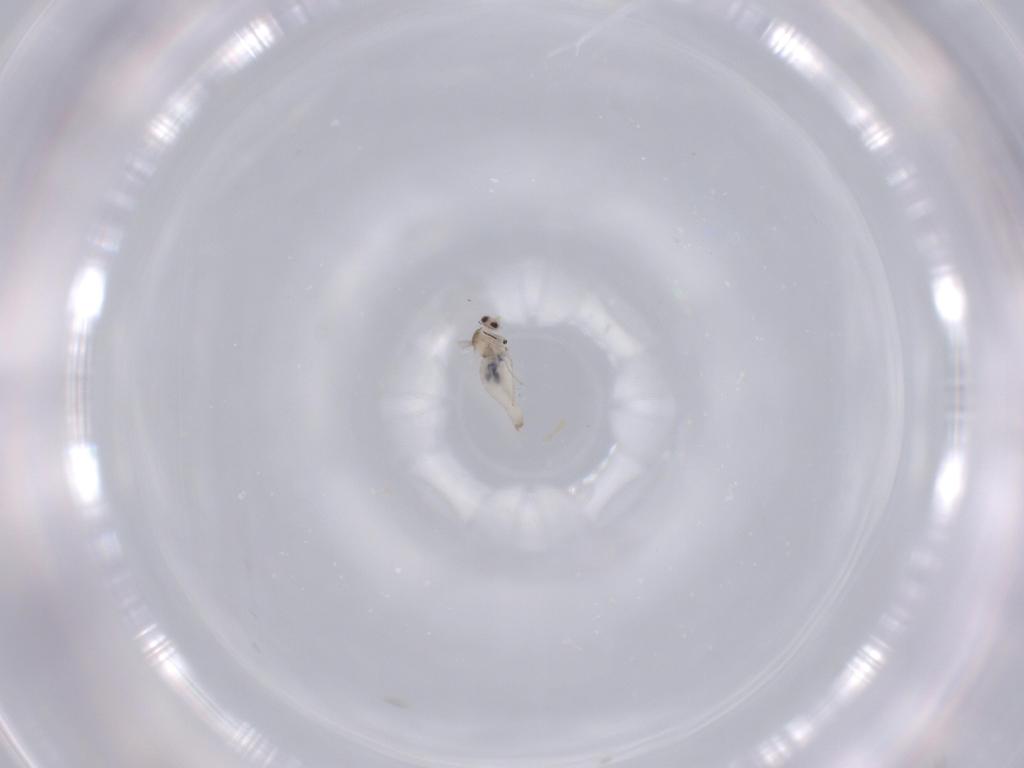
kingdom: Animalia
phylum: Arthropoda
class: Insecta
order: Diptera
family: Cecidomyiidae
